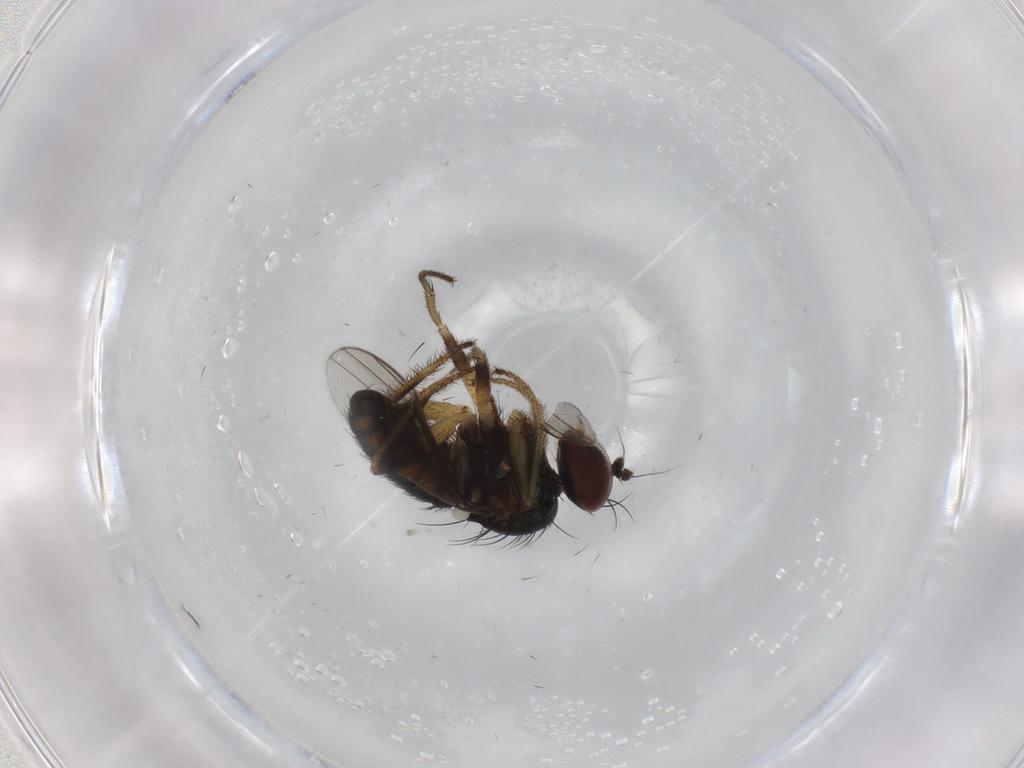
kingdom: Animalia
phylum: Arthropoda
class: Insecta
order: Diptera
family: Dolichopodidae
